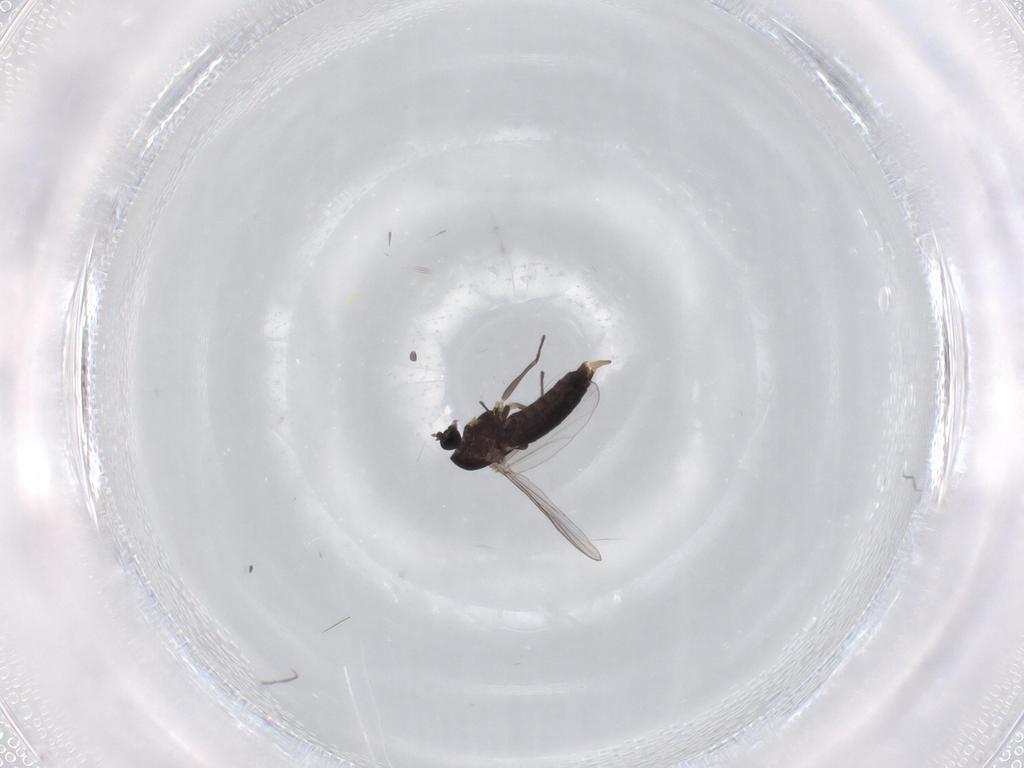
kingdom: Animalia
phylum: Arthropoda
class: Insecta
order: Diptera
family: Chironomidae
